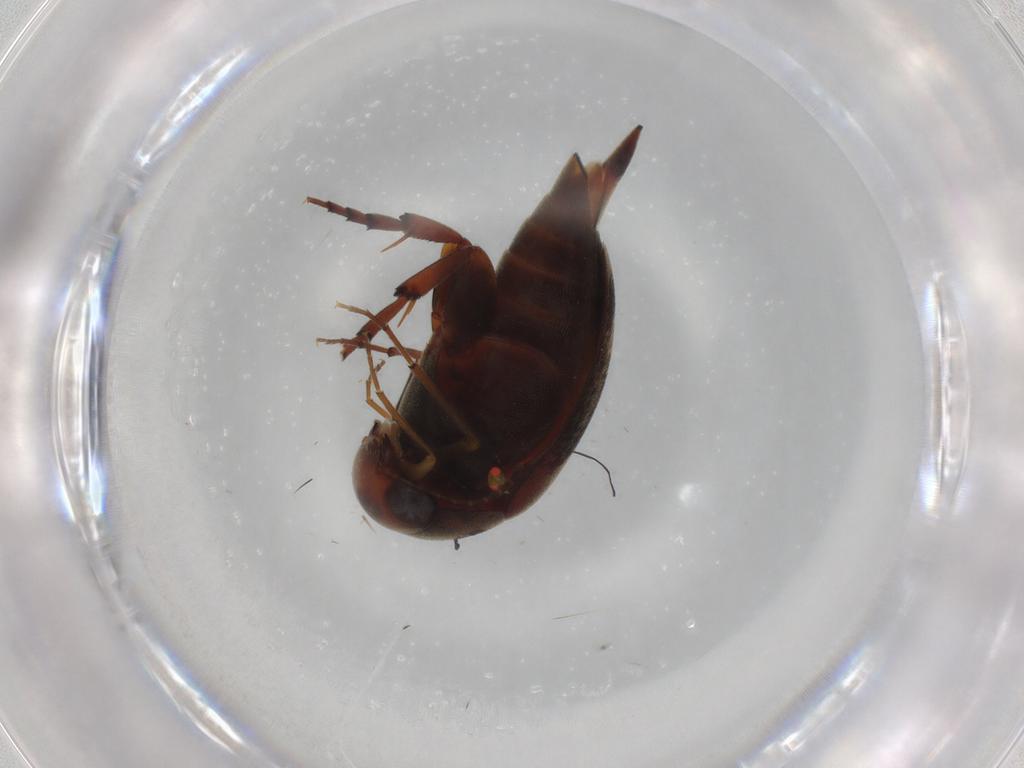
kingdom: Animalia
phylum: Arthropoda
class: Insecta
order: Coleoptera
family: Mordellidae
